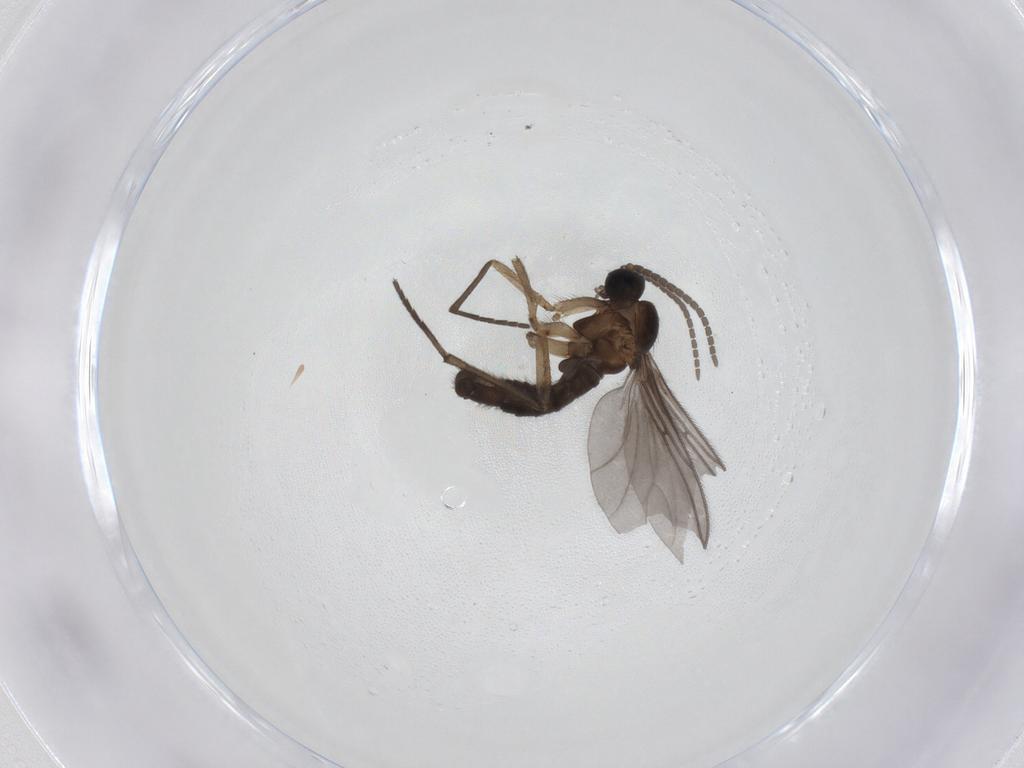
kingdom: Animalia
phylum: Arthropoda
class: Insecta
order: Diptera
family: Sciaridae
